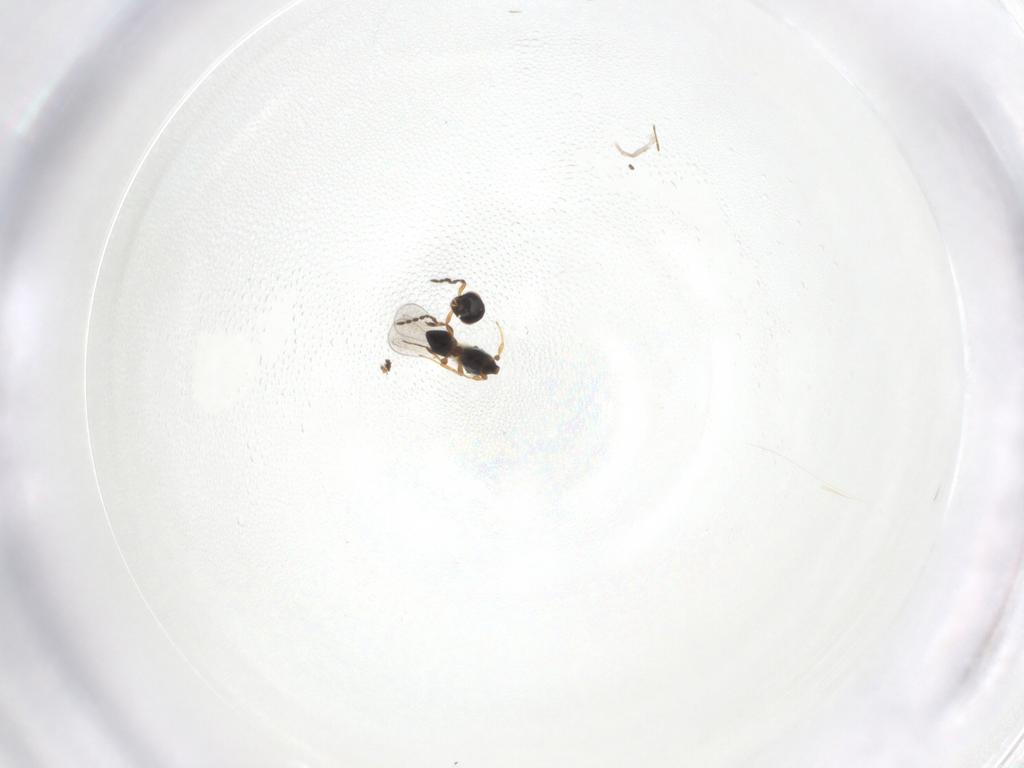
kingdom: Animalia
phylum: Arthropoda
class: Insecta
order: Hymenoptera
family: Platygastridae
